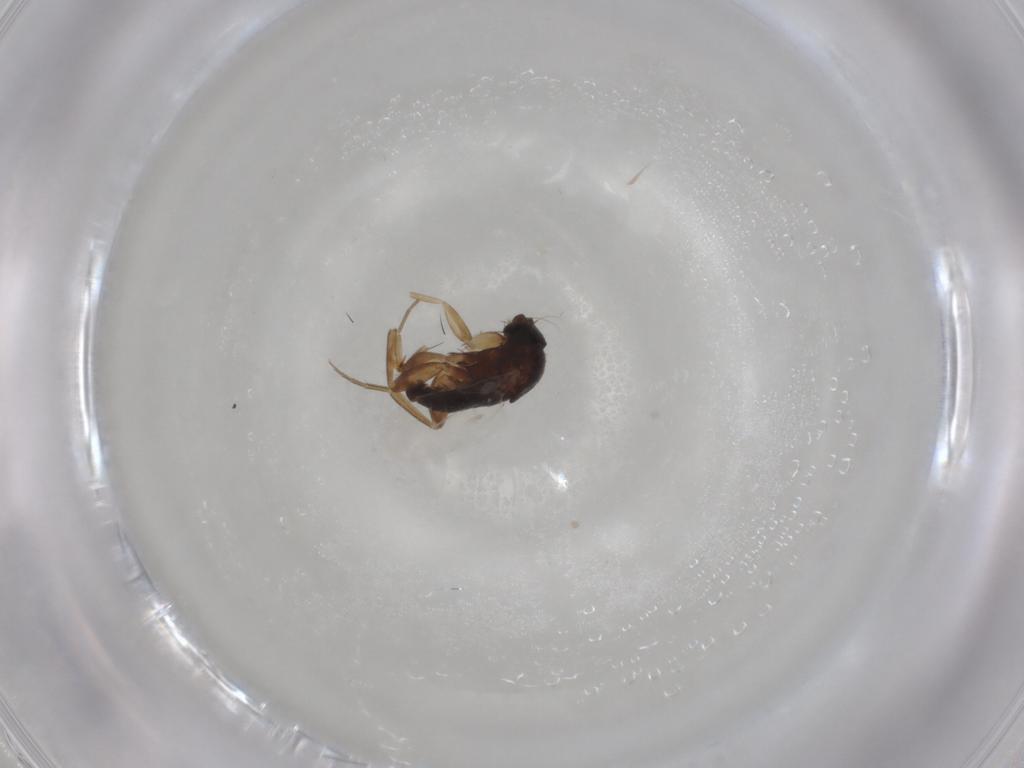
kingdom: Animalia
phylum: Arthropoda
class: Insecta
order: Diptera
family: Phoridae
